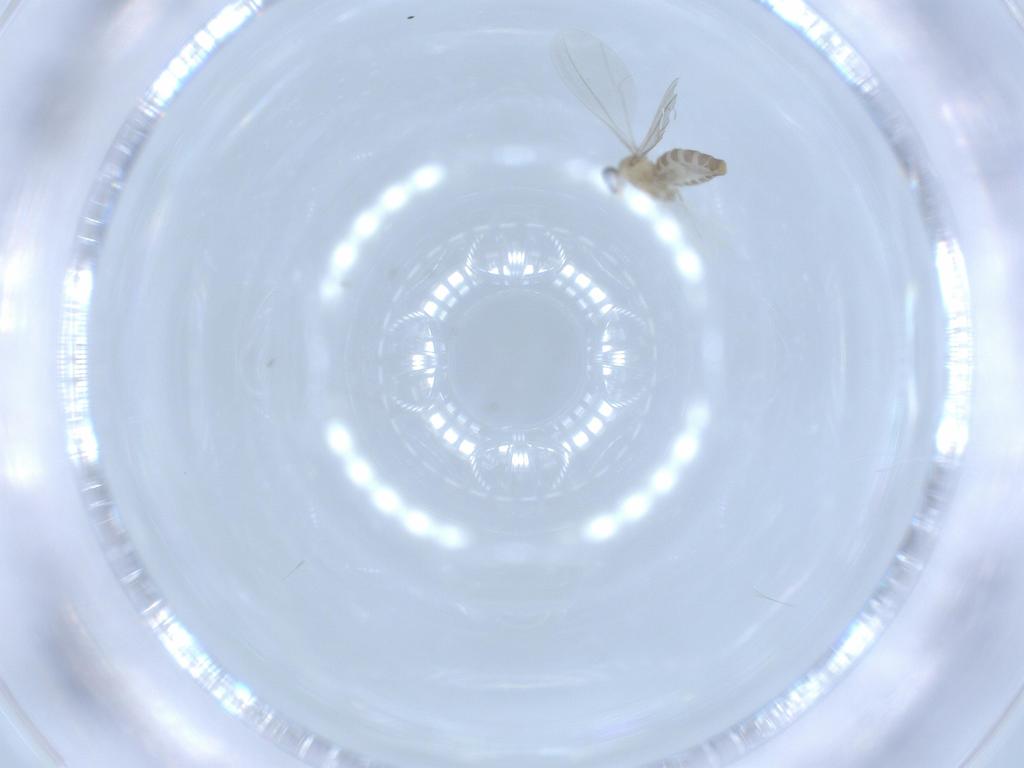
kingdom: Animalia
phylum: Arthropoda
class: Insecta
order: Diptera
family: Cecidomyiidae
